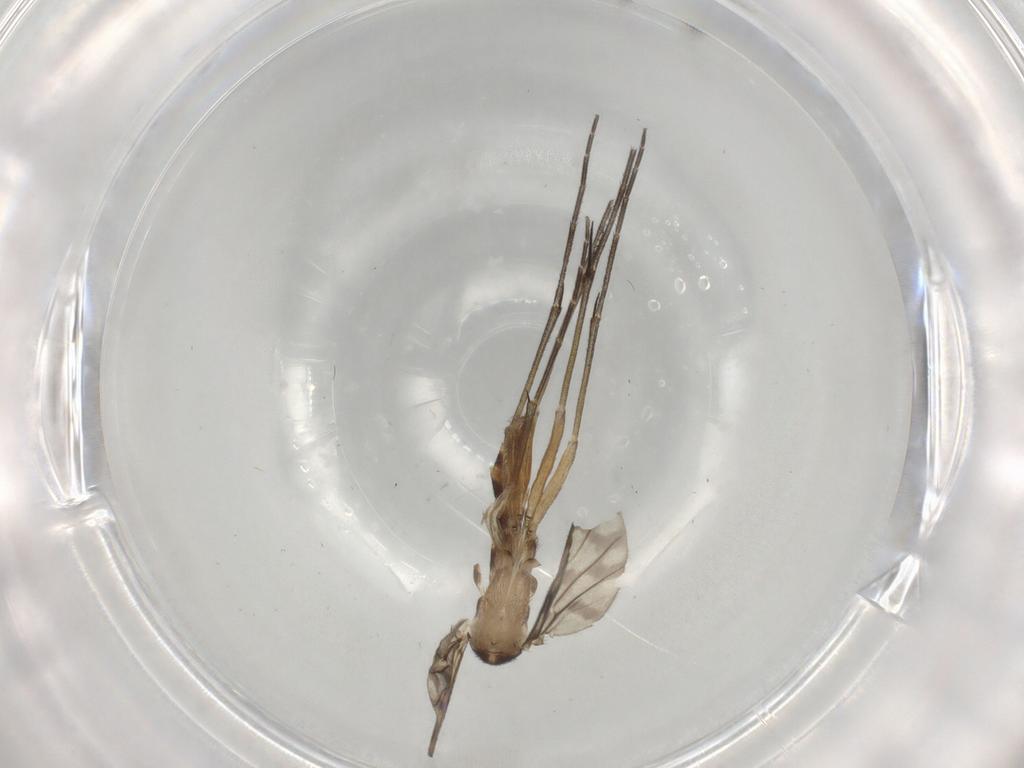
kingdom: Animalia
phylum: Arthropoda
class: Insecta
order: Diptera
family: Keroplatidae
